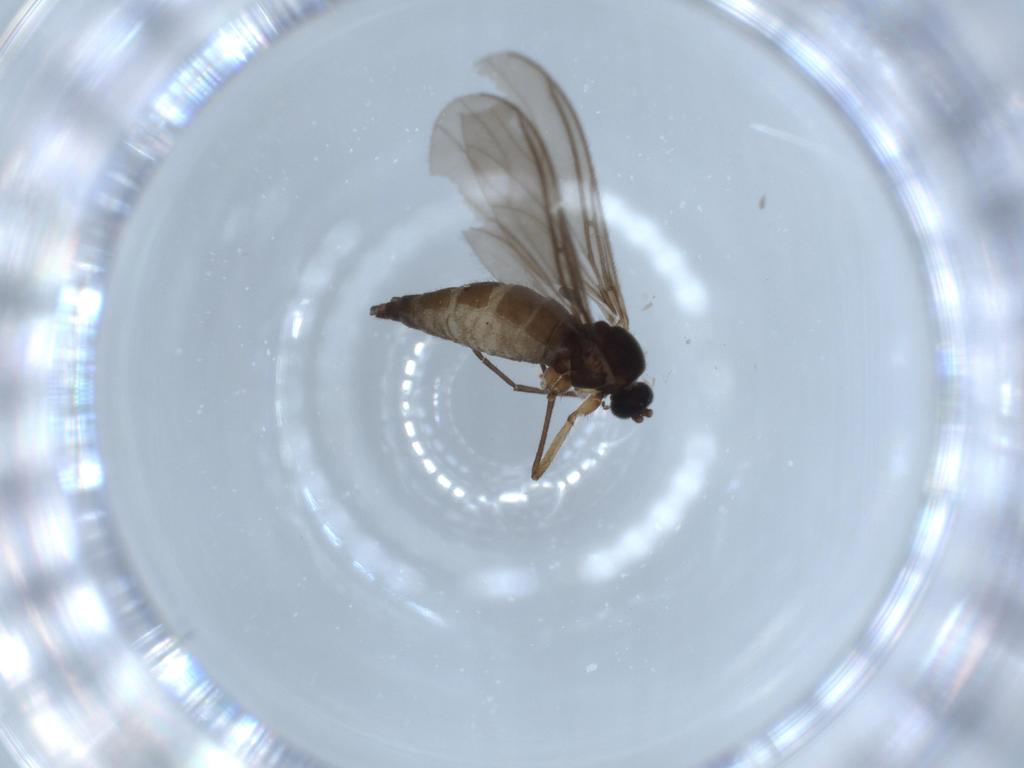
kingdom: Animalia
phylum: Arthropoda
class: Insecta
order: Diptera
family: Sciaridae
